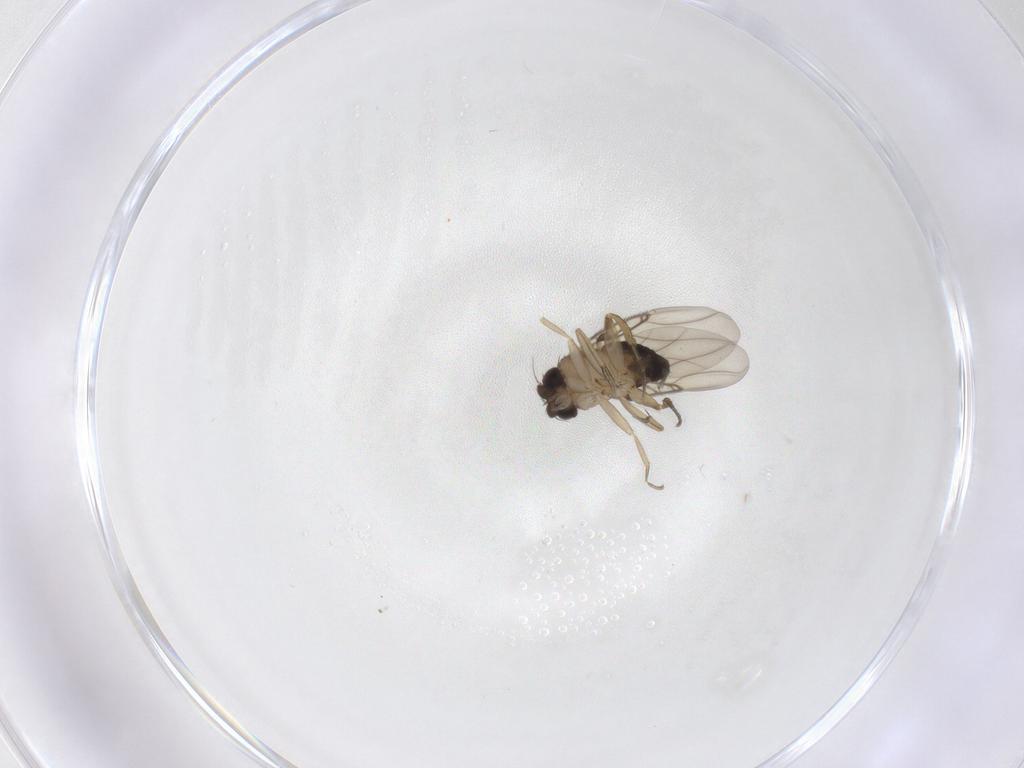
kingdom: Animalia
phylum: Arthropoda
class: Insecta
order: Diptera
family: Phoridae
